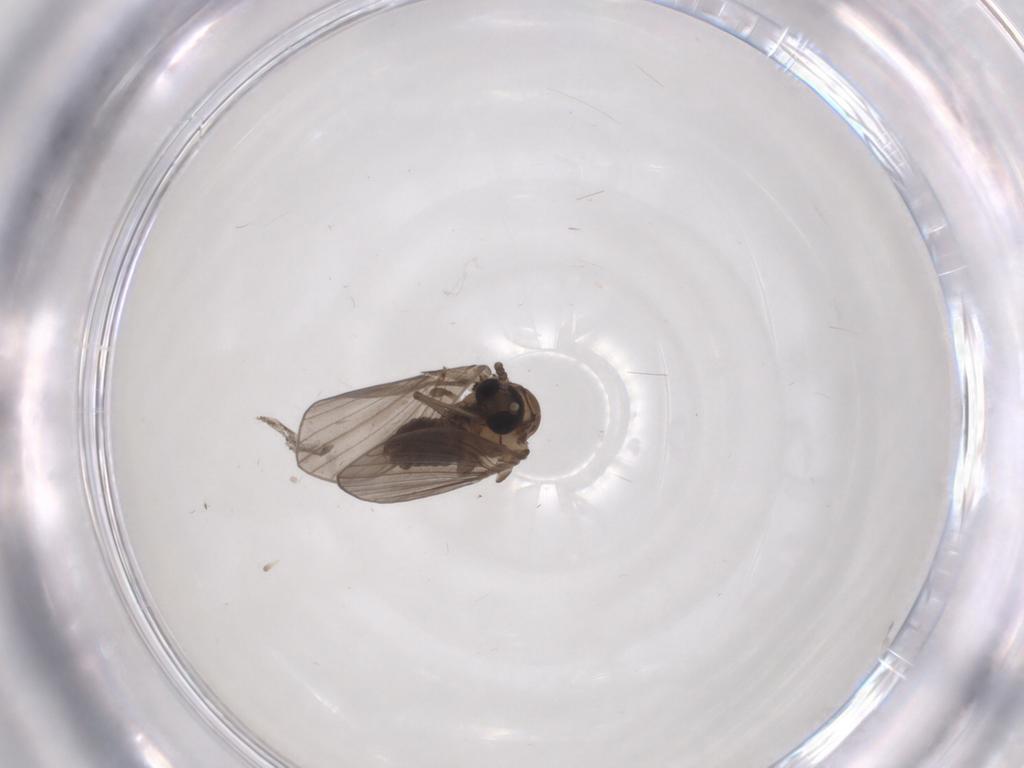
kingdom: Animalia
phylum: Arthropoda
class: Insecta
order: Diptera
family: Psychodidae
